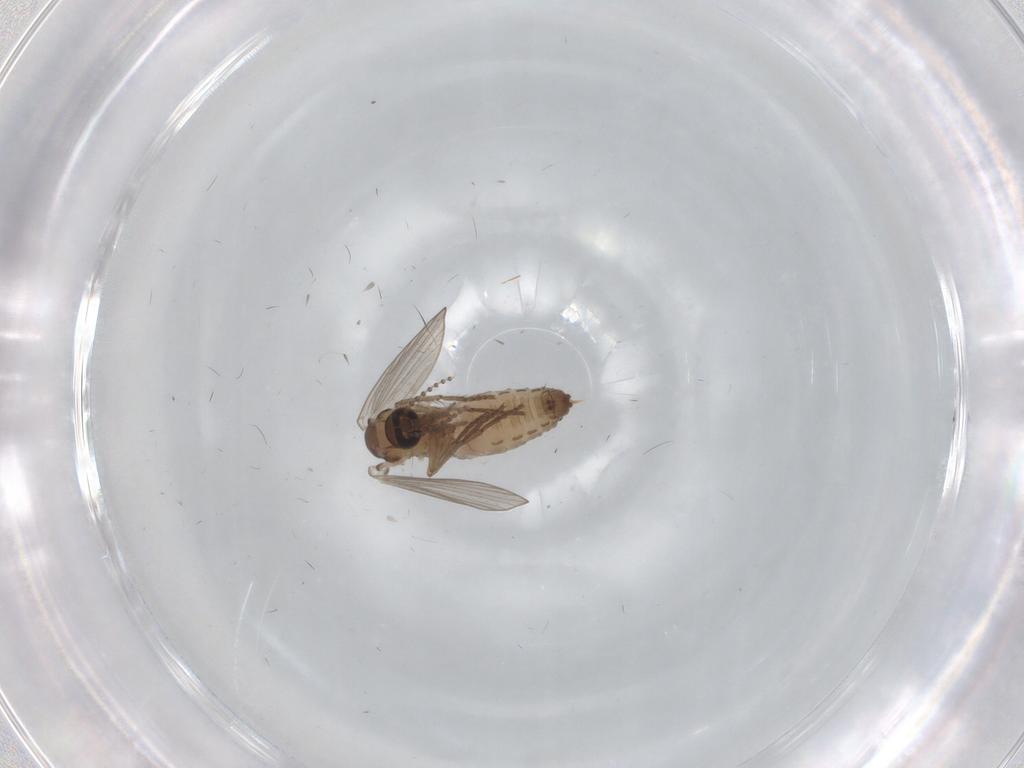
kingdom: Animalia
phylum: Arthropoda
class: Insecta
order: Diptera
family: Psychodidae
